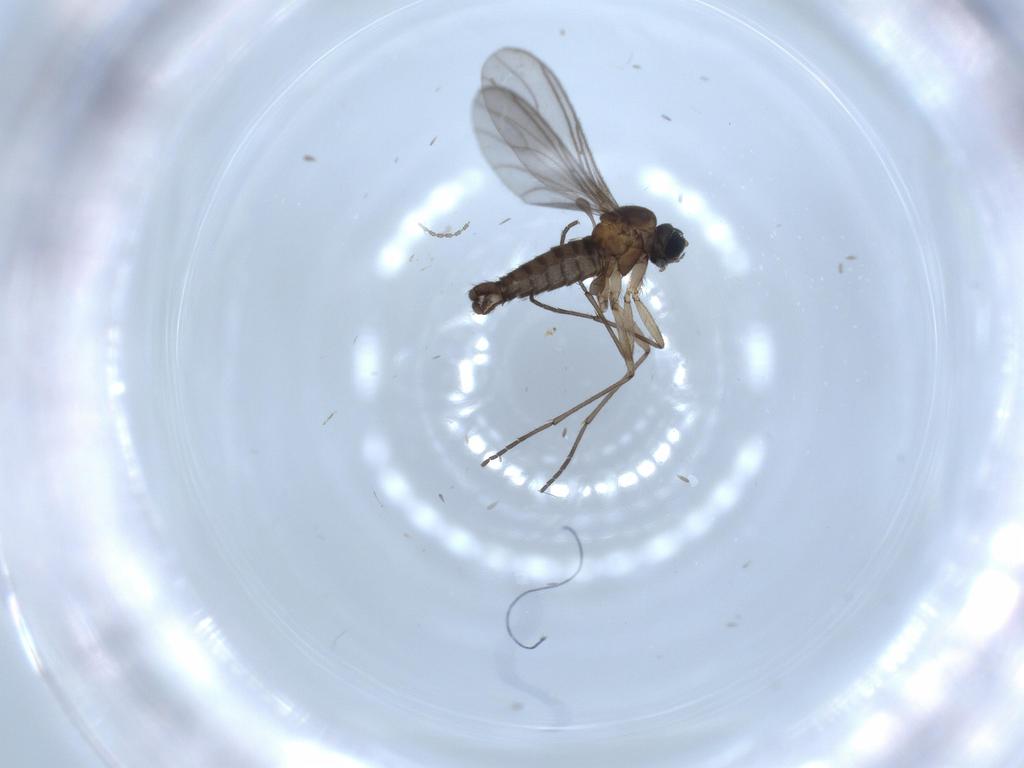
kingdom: Animalia
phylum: Arthropoda
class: Insecta
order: Diptera
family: Sciaridae
